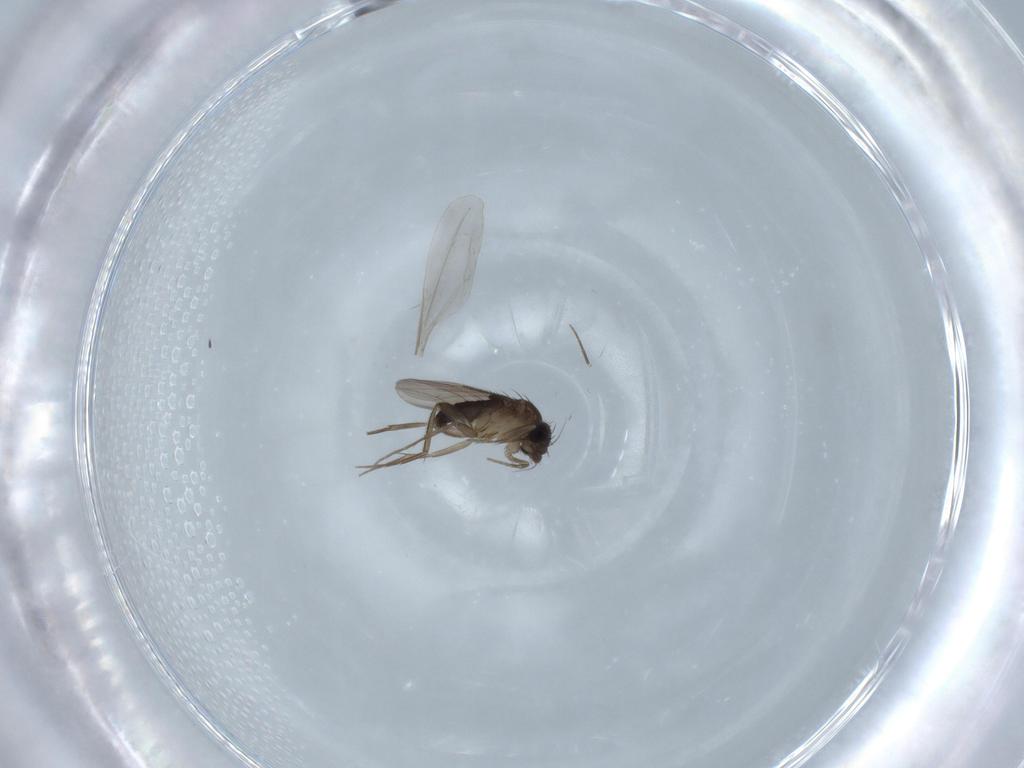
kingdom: Animalia
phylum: Arthropoda
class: Insecta
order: Diptera
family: Phoridae
